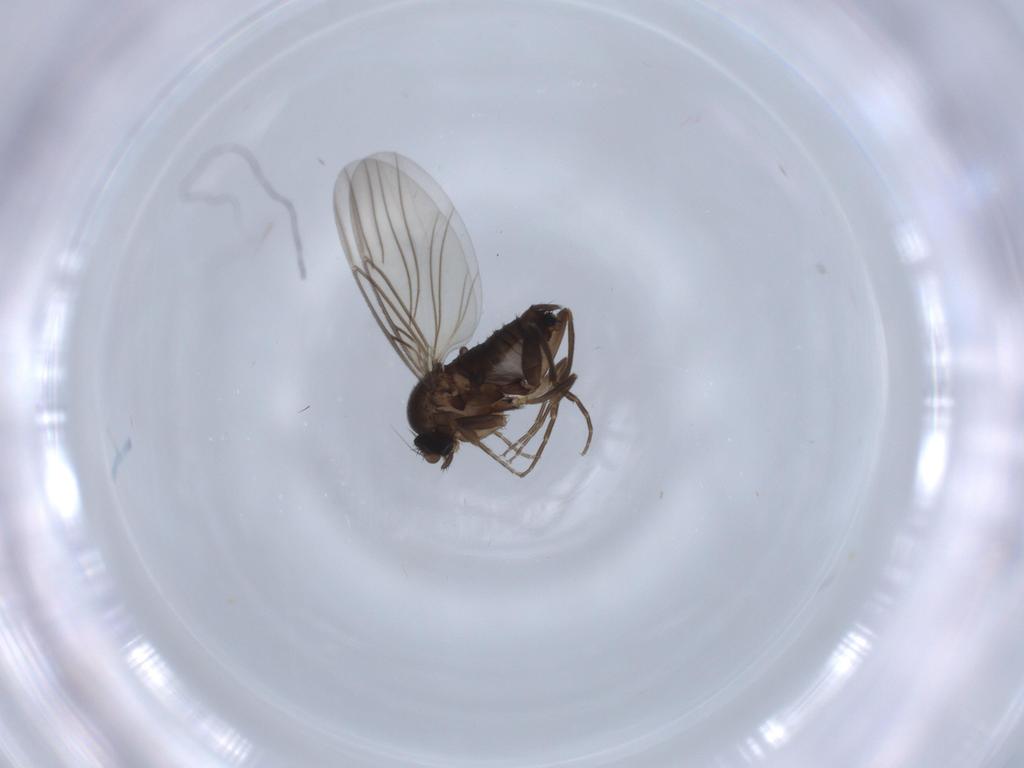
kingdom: Animalia
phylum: Arthropoda
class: Insecta
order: Diptera
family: Tabanidae
